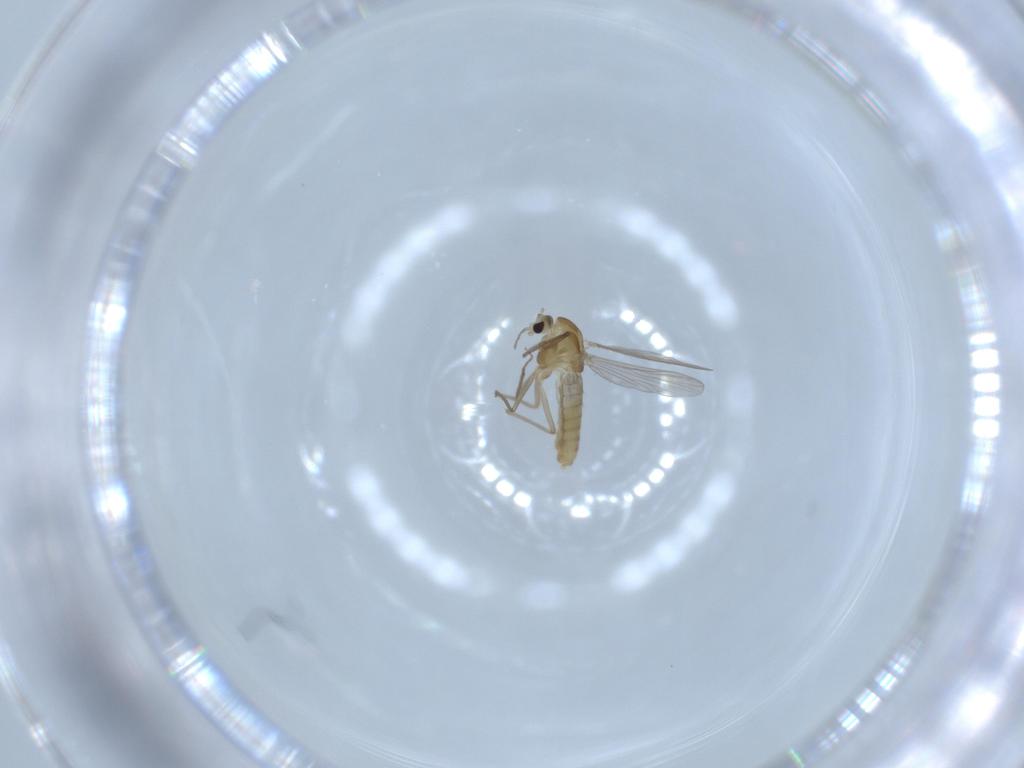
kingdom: Animalia
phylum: Arthropoda
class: Insecta
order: Diptera
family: Chironomidae
